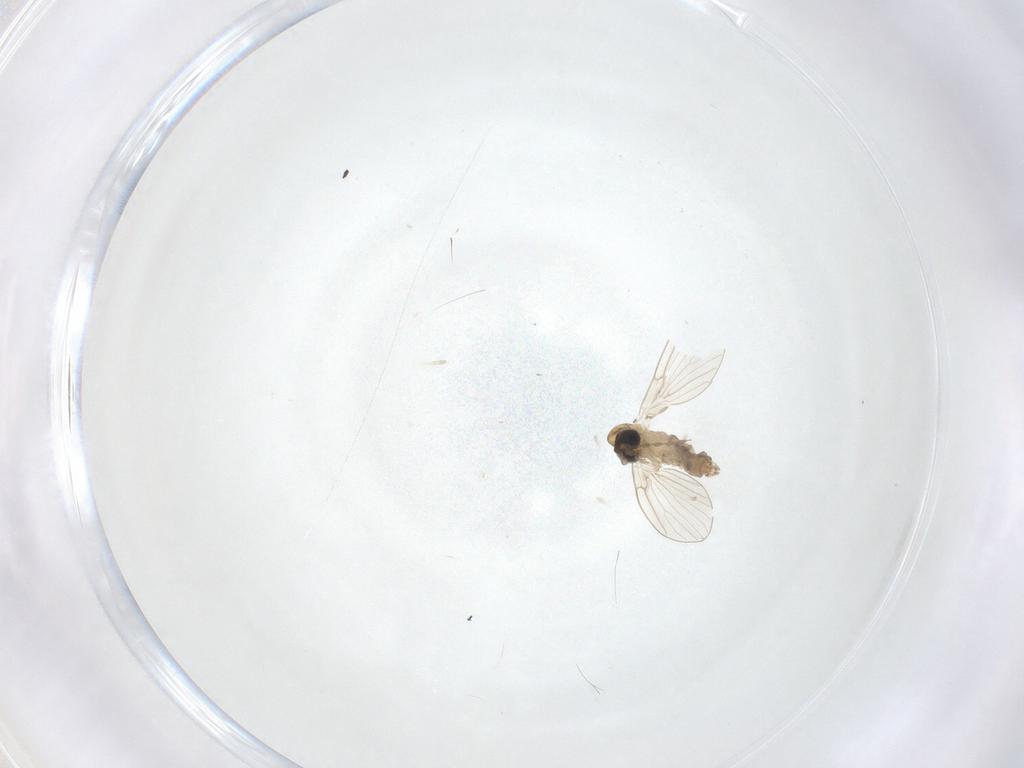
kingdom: Animalia
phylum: Arthropoda
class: Insecta
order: Diptera
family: Psychodidae
